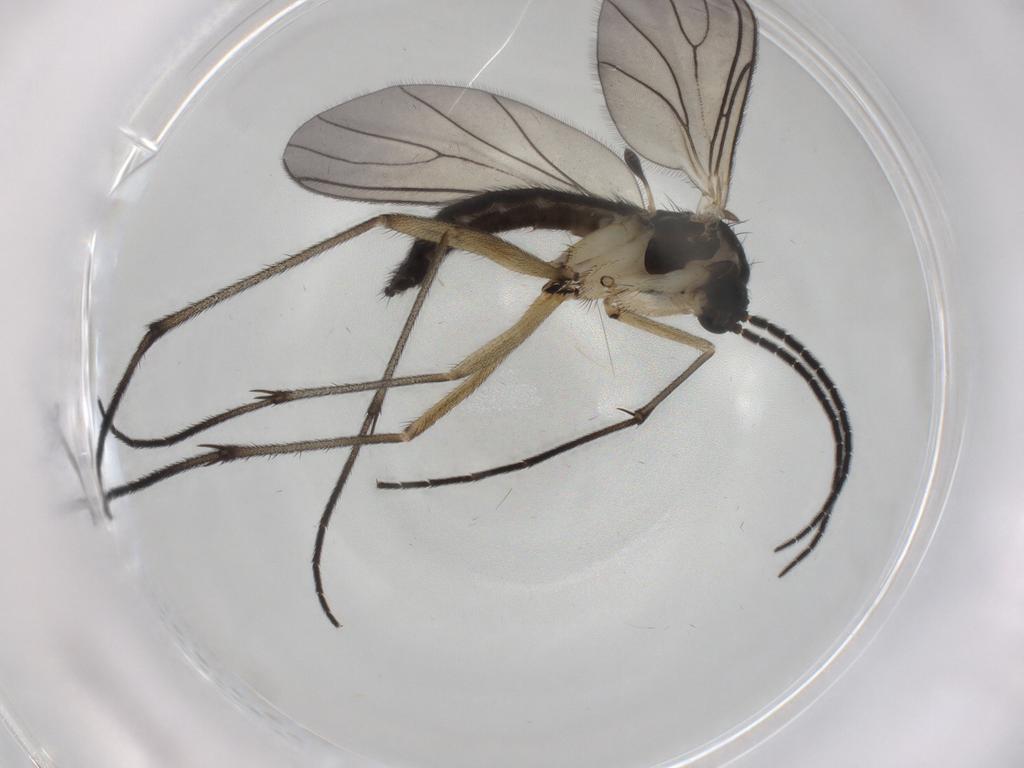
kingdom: Animalia
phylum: Arthropoda
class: Insecta
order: Diptera
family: Sciaridae
